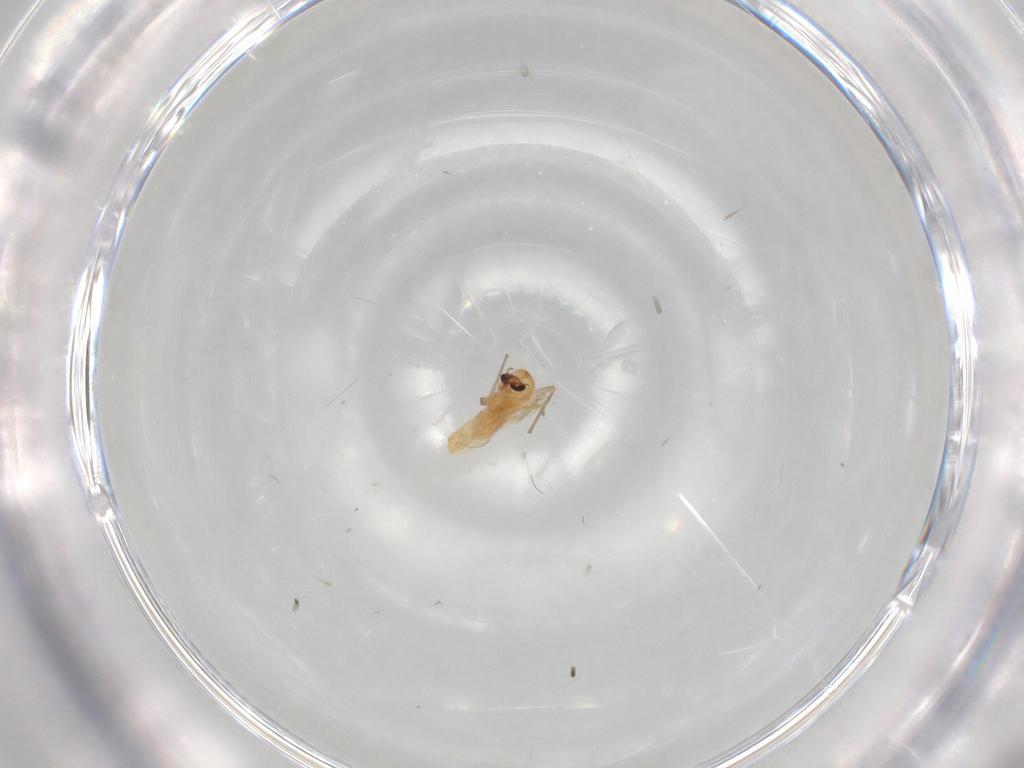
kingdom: Animalia
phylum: Arthropoda
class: Insecta
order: Diptera
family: Chironomidae
